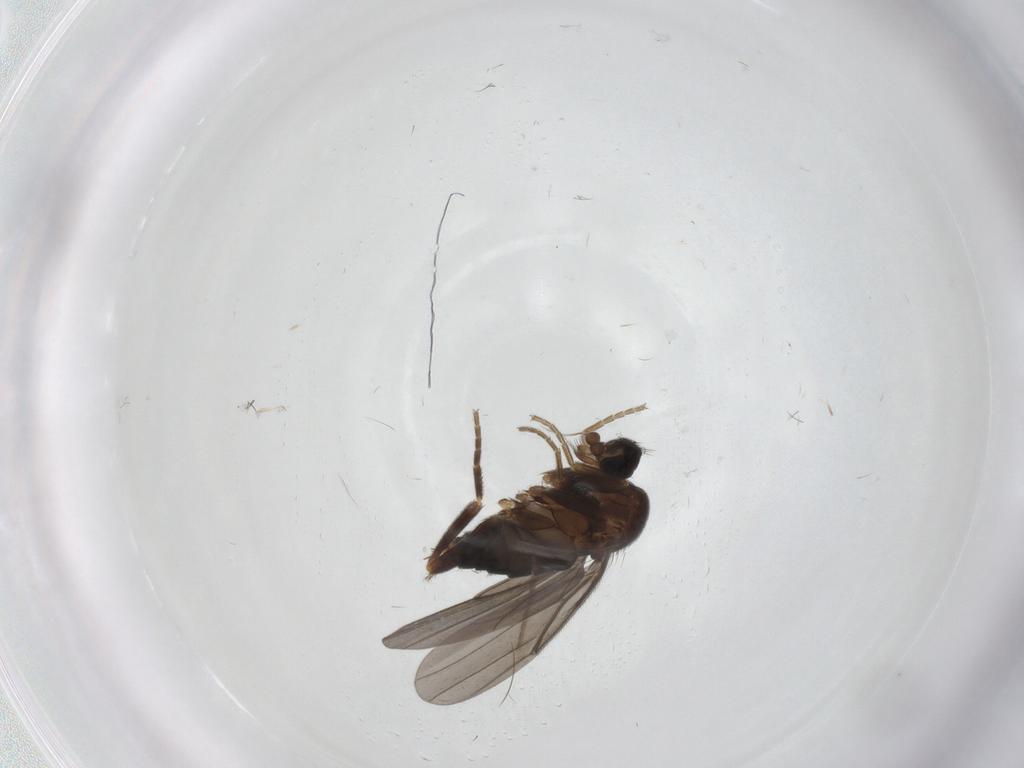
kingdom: Animalia
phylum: Arthropoda
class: Insecta
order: Diptera
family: Phoridae
